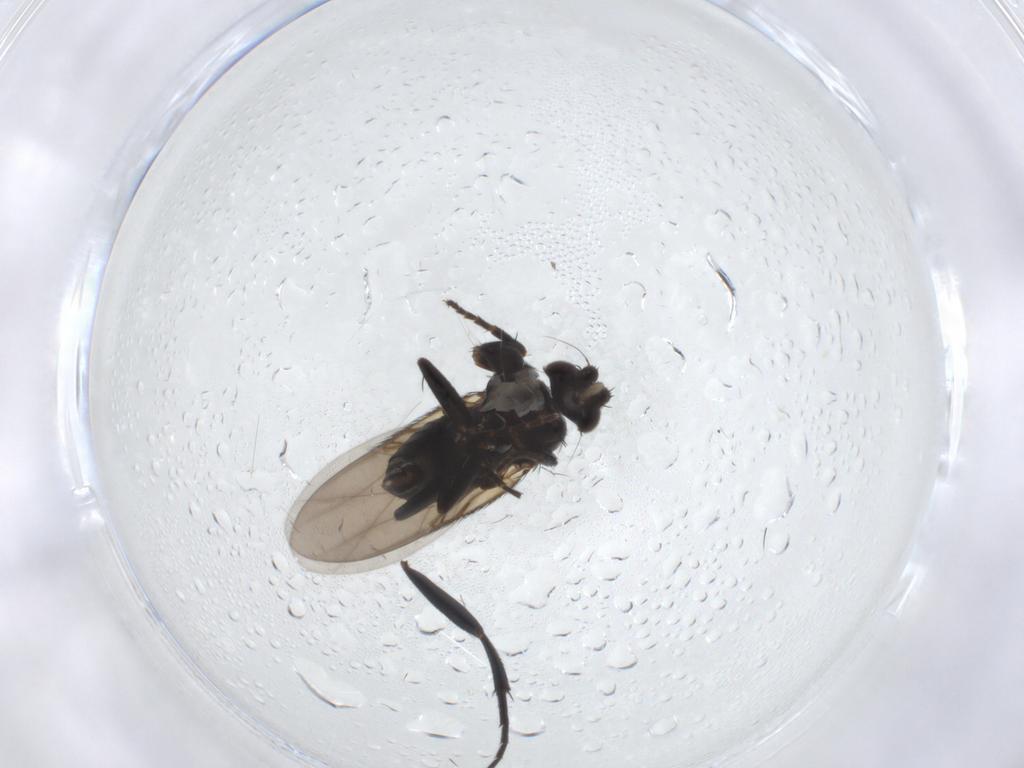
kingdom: Animalia
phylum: Arthropoda
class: Insecta
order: Diptera
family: Phoridae
